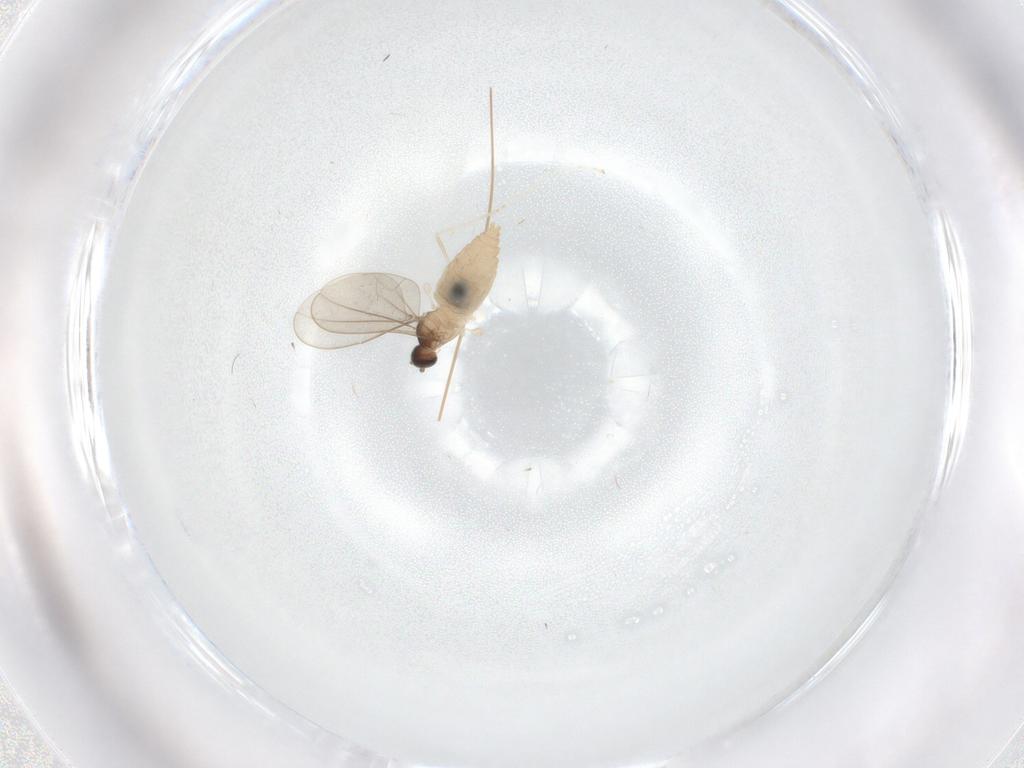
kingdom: Animalia
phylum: Arthropoda
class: Insecta
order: Diptera
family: Cecidomyiidae
